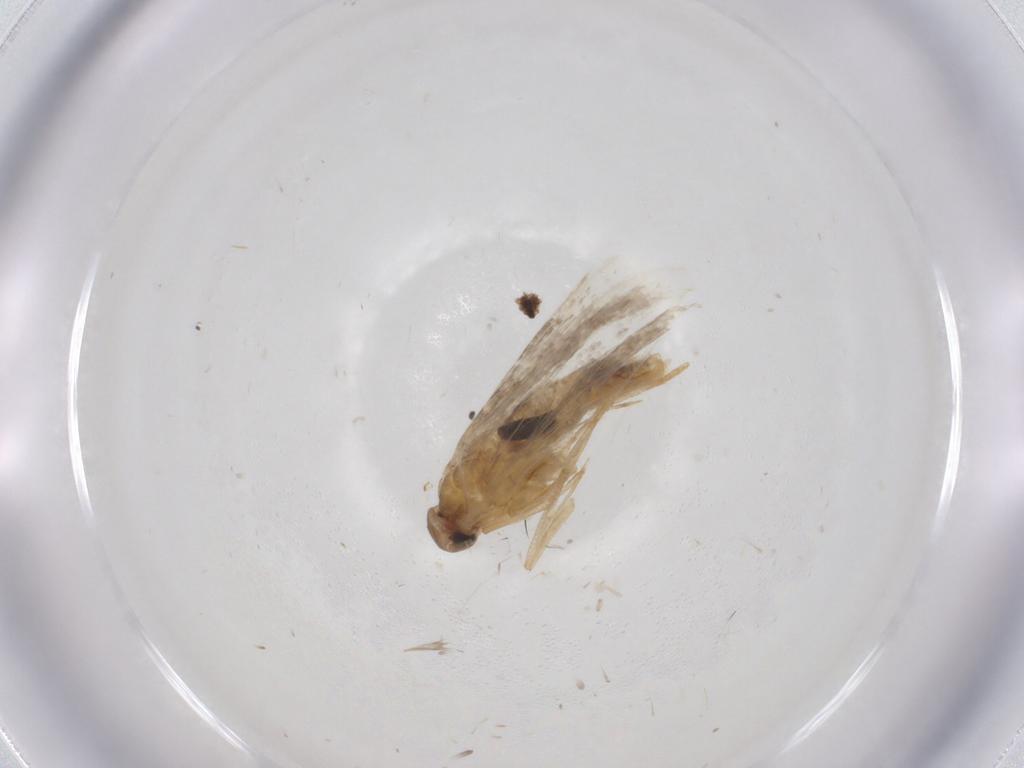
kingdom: Animalia
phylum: Arthropoda
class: Insecta
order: Lepidoptera
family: Gelechiidae
